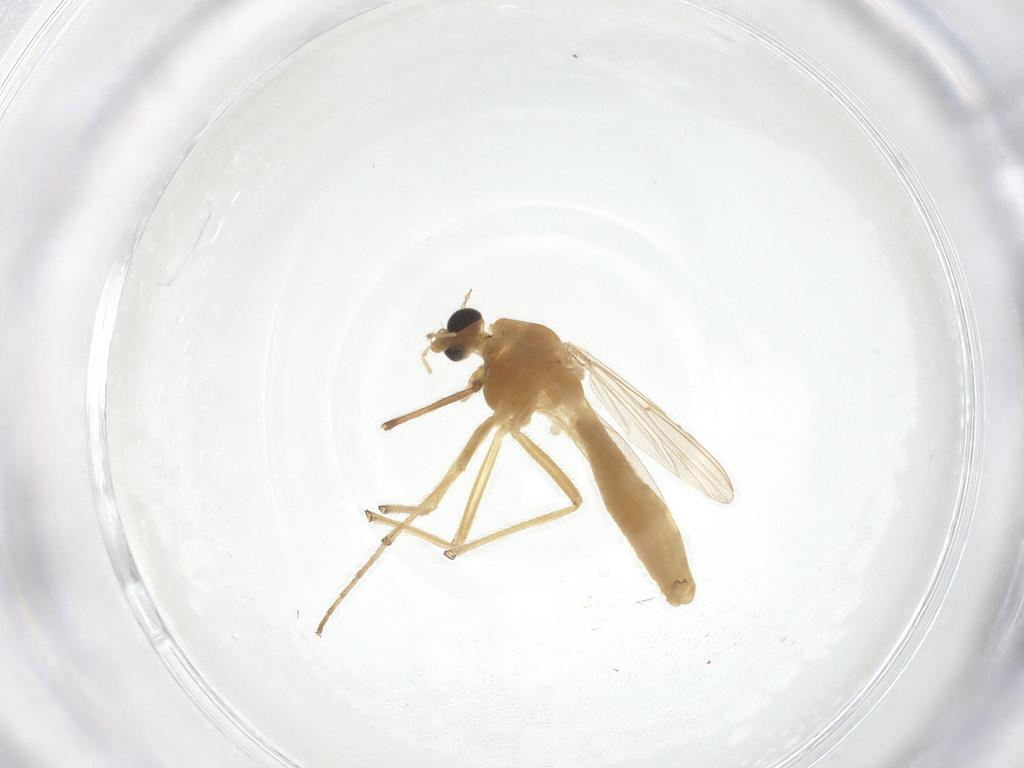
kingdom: Animalia
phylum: Arthropoda
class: Insecta
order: Diptera
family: Chironomidae
